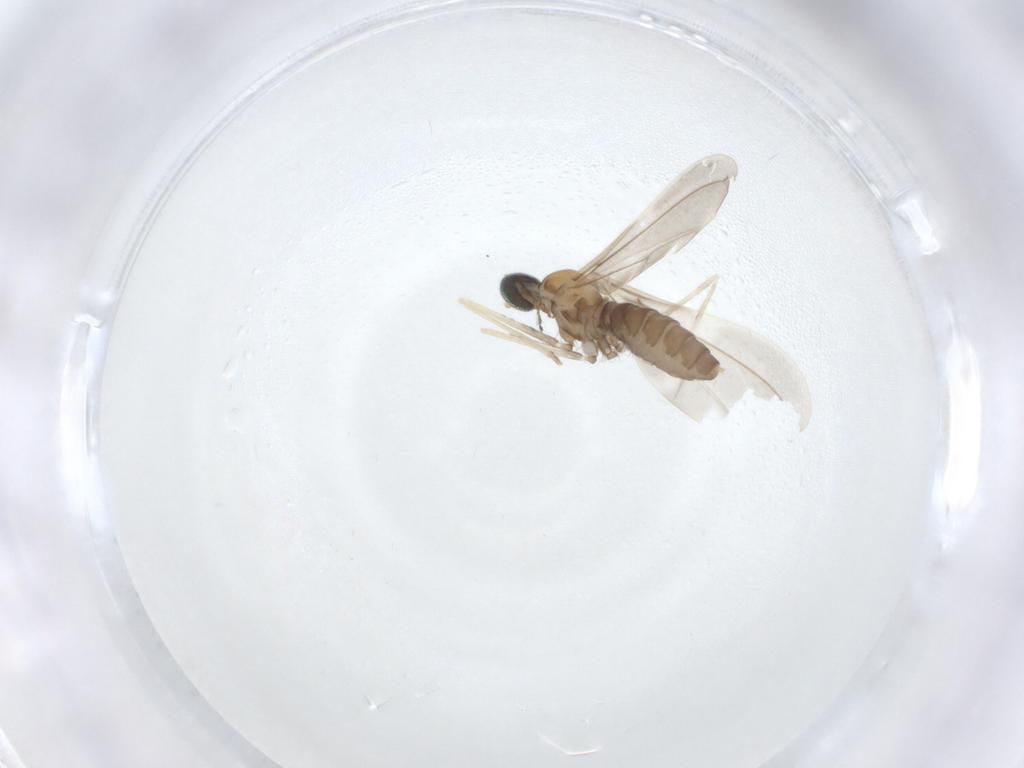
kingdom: Animalia
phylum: Arthropoda
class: Insecta
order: Diptera
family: Cecidomyiidae
